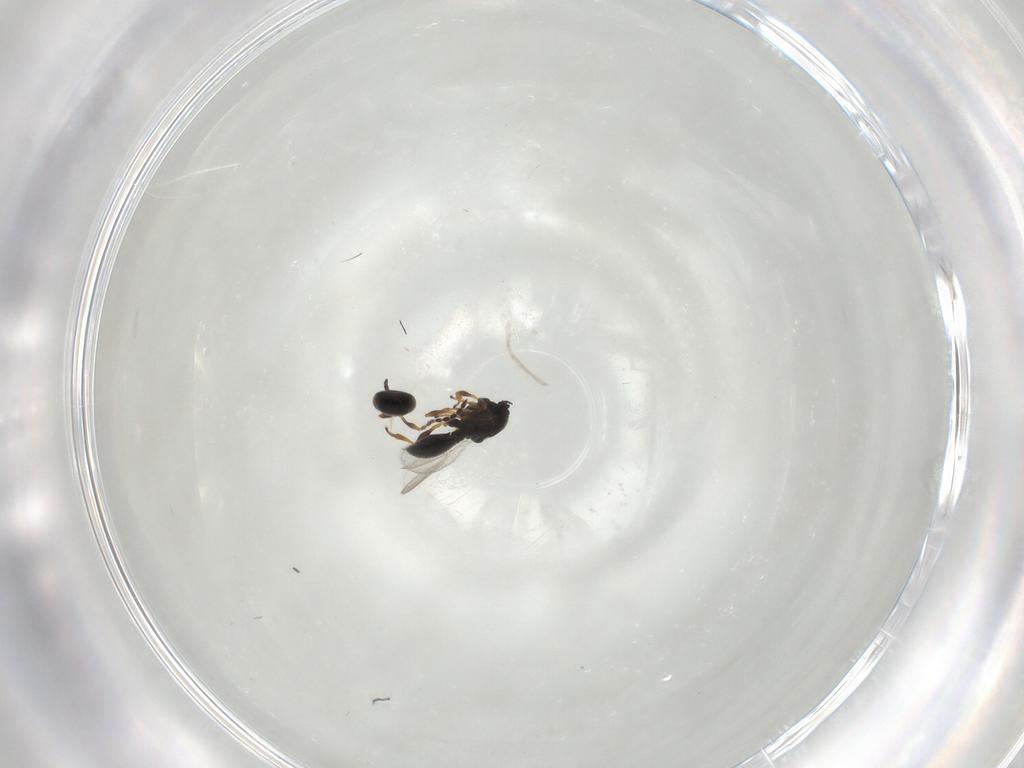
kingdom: Animalia
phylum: Arthropoda
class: Insecta
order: Hymenoptera
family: Platygastridae
